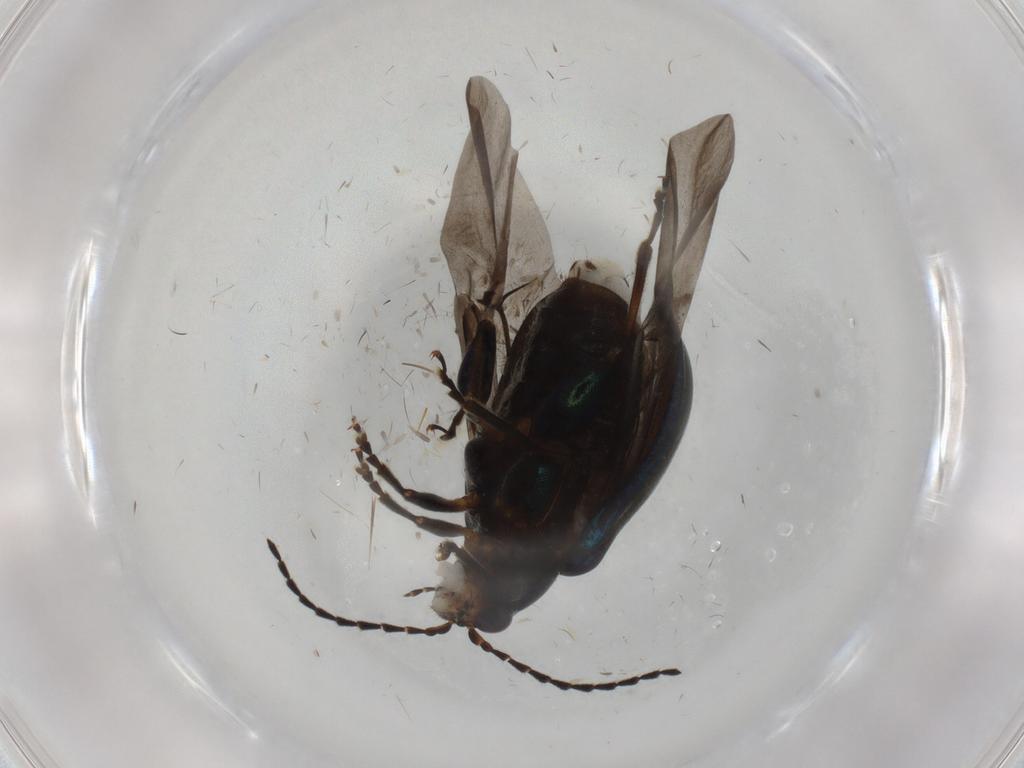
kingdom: Animalia
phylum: Arthropoda
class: Insecta
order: Coleoptera
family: Chrysomelidae
